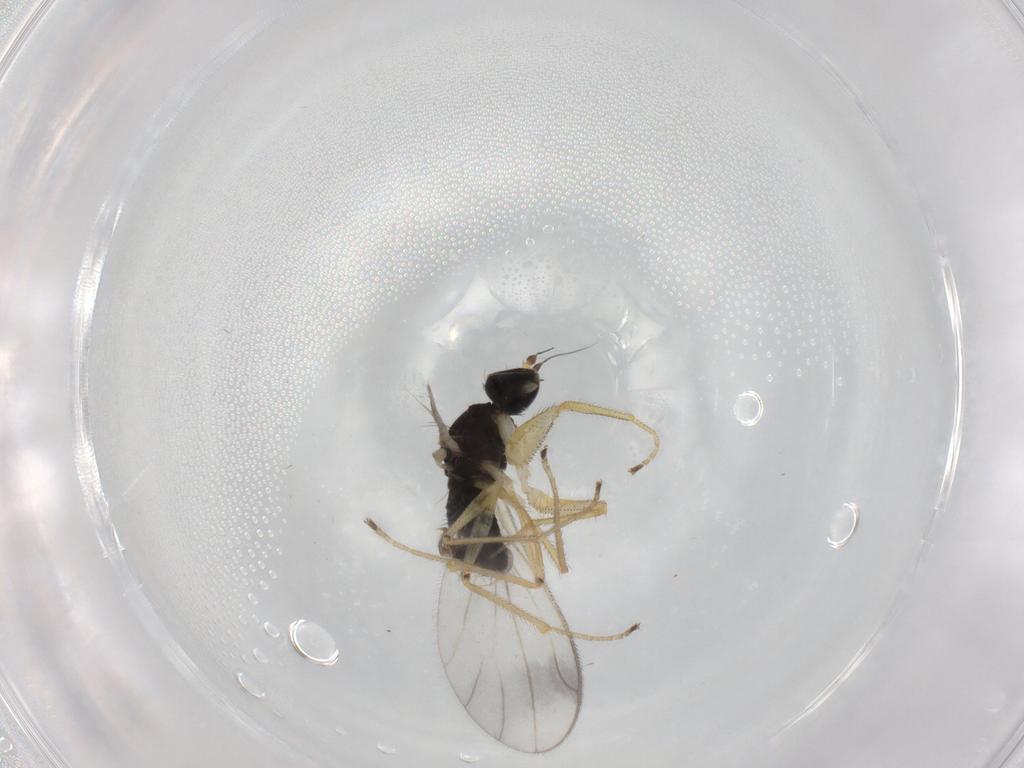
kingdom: Animalia
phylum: Arthropoda
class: Insecta
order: Diptera
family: Empididae
